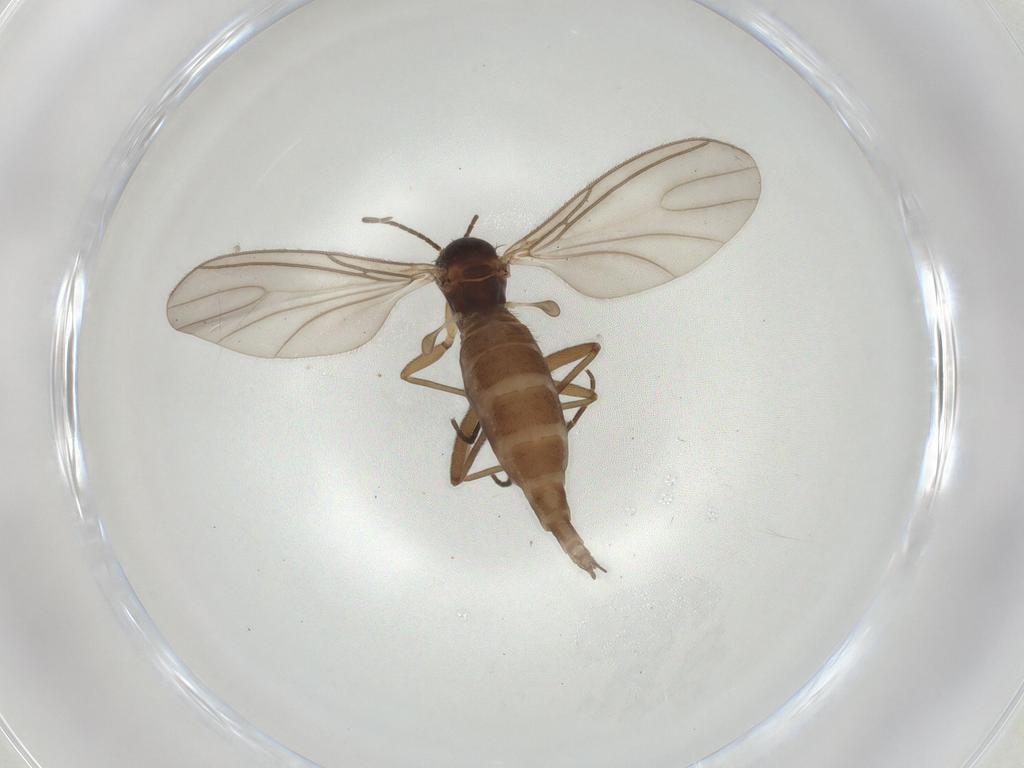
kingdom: Animalia
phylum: Arthropoda
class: Insecta
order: Diptera
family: Sciaridae
